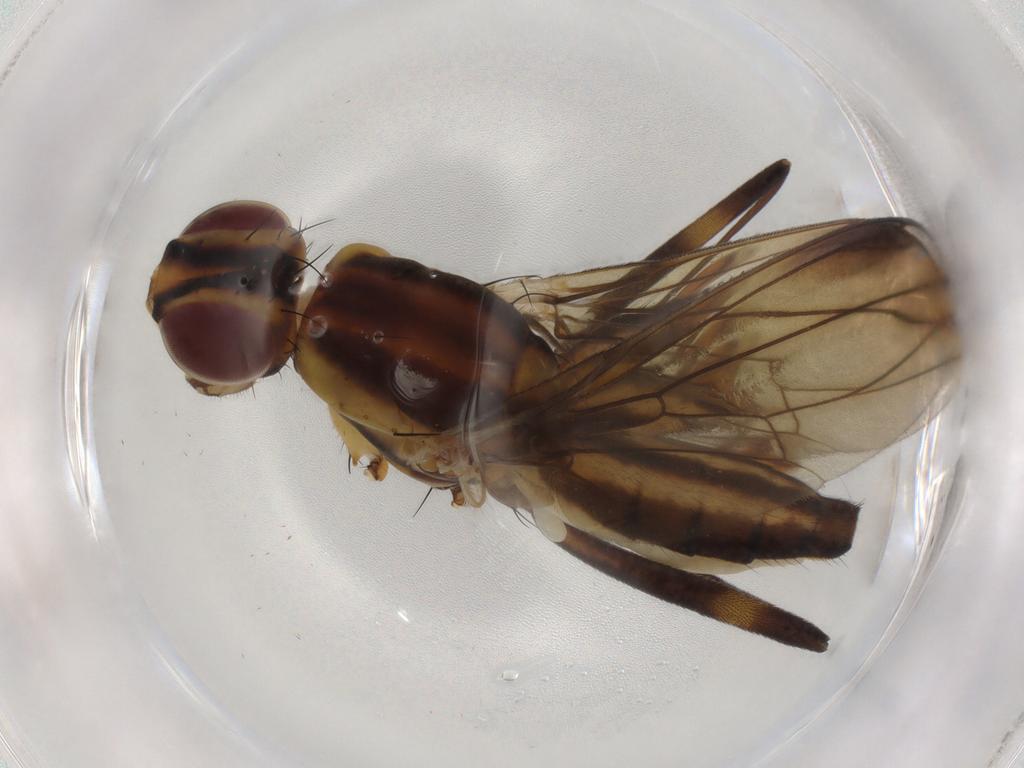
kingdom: Animalia
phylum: Arthropoda
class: Insecta
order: Diptera
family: Neriidae
